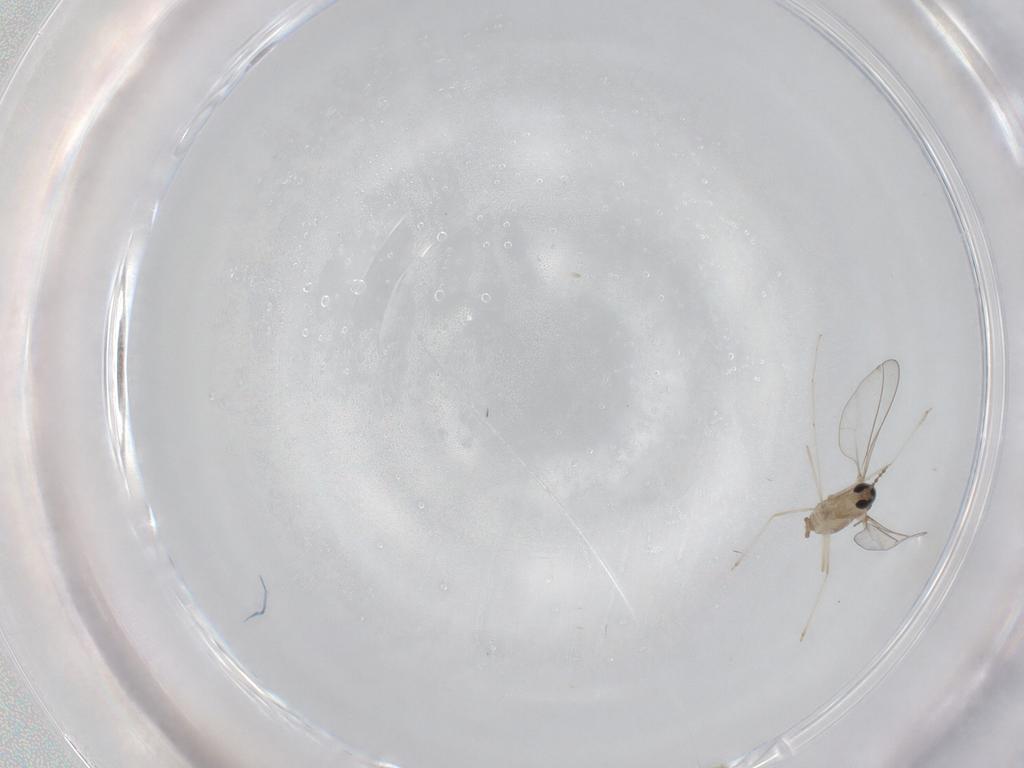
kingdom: Animalia
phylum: Arthropoda
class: Insecta
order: Diptera
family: Cecidomyiidae
